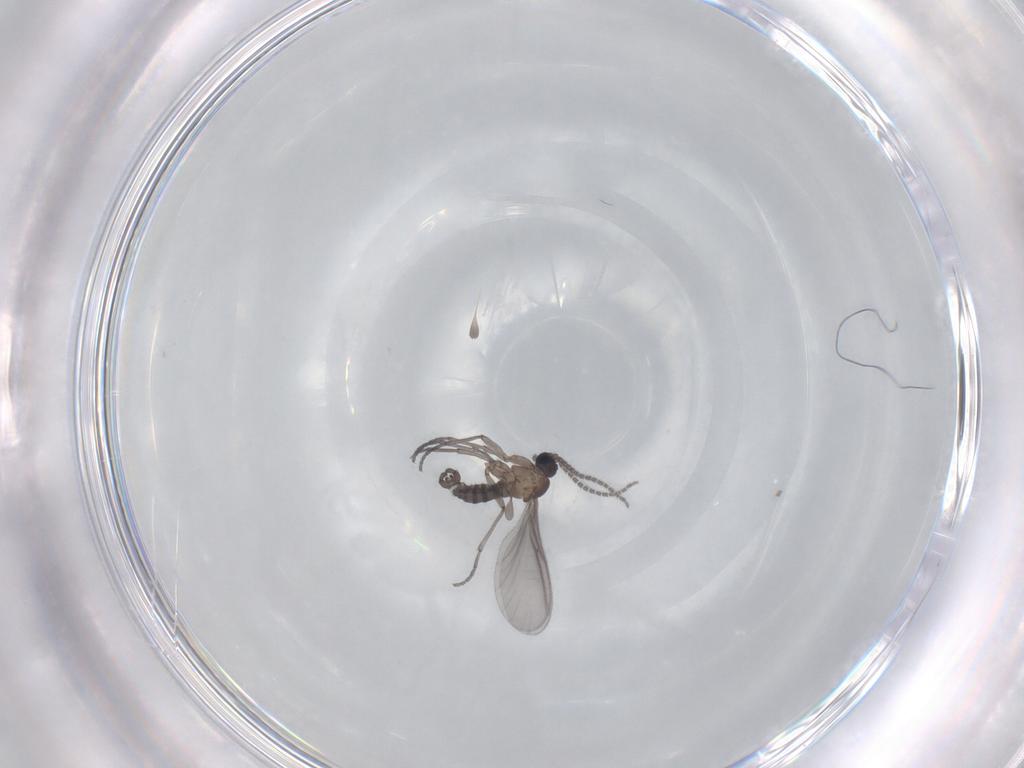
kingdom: Animalia
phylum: Arthropoda
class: Insecta
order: Diptera
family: Sciaridae
